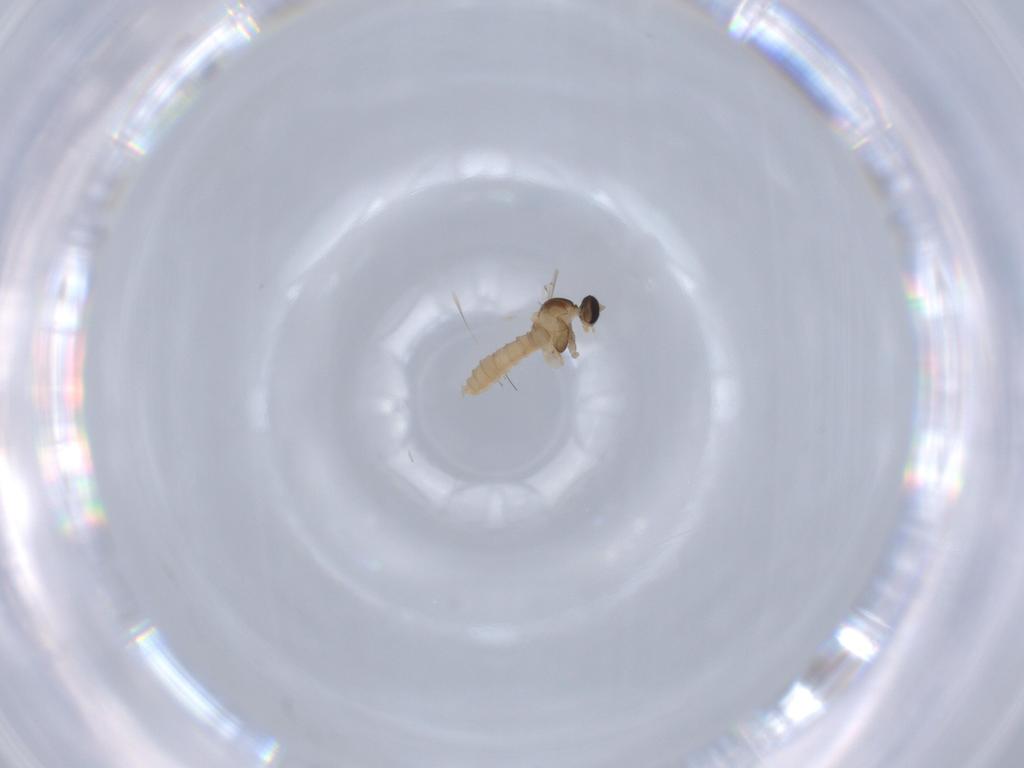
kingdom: Animalia
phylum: Arthropoda
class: Insecta
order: Diptera
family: Cecidomyiidae
